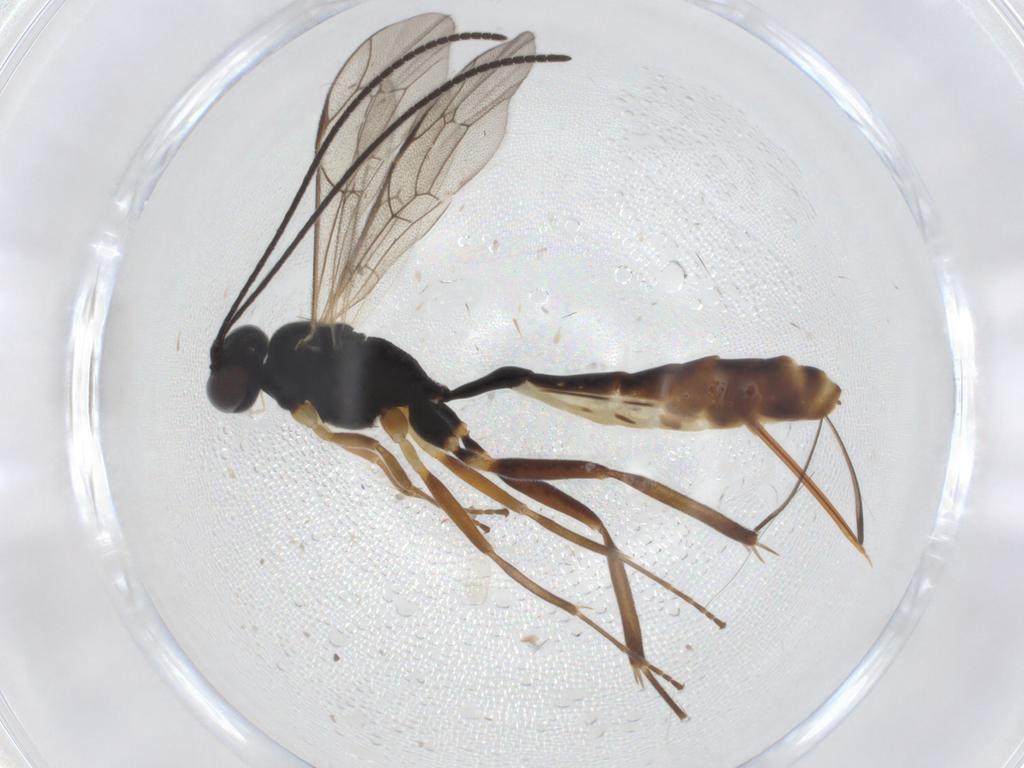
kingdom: Animalia
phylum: Arthropoda
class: Insecta
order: Hymenoptera
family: Ichneumonidae
